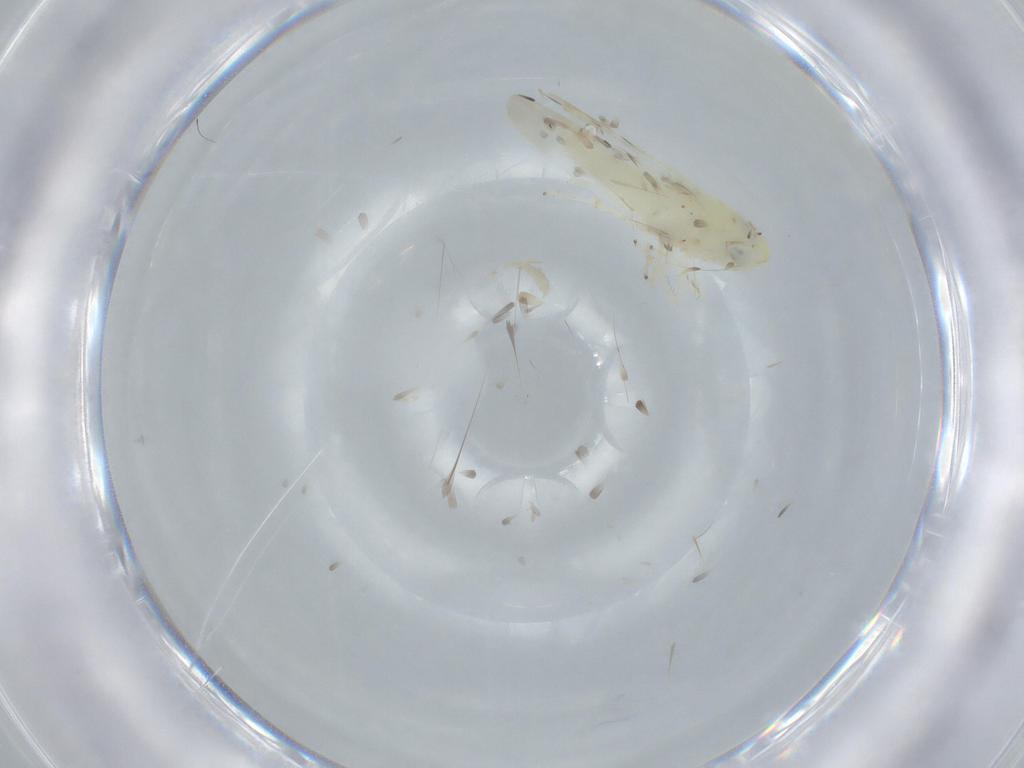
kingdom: Animalia
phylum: Arthropoda
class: Insecta
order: Hemiptera
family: Cicadellidae
